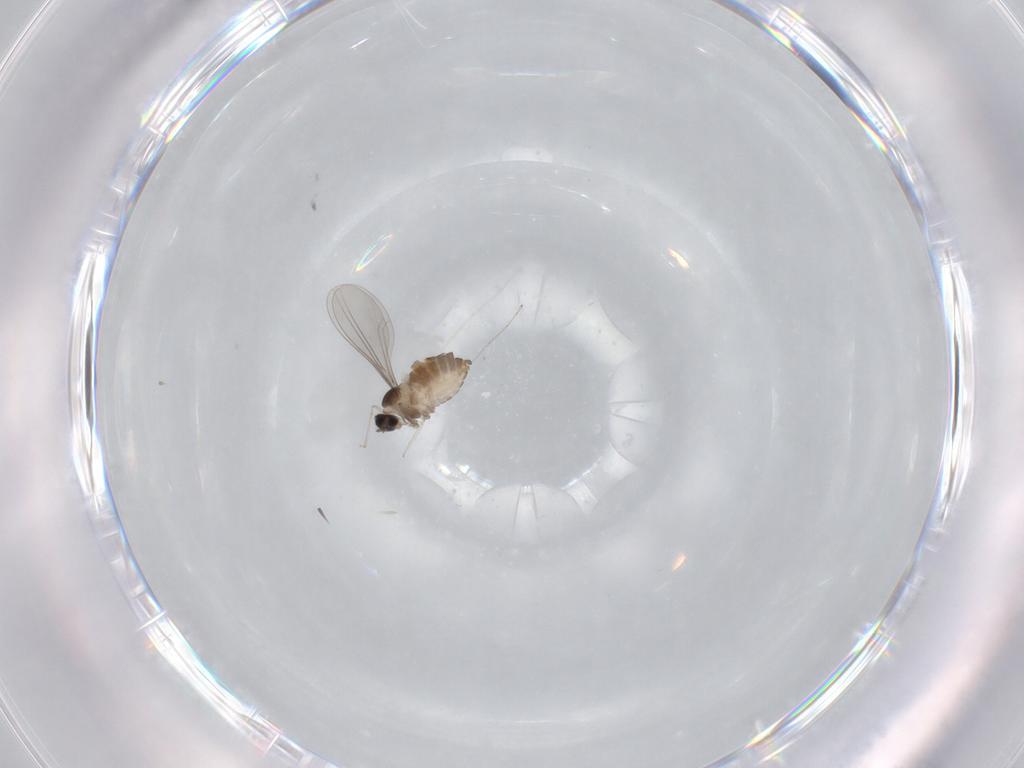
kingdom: Animalia
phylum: Arthropoda
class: Insecta
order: Diptera
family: Cecidomyiidae
